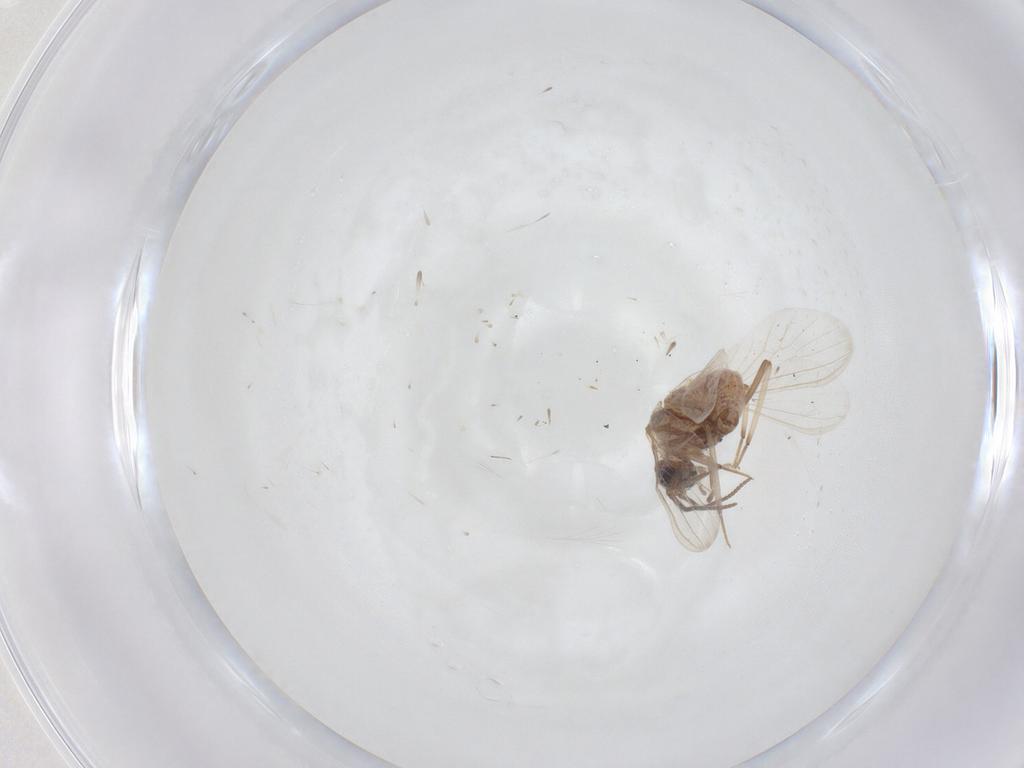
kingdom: Animalia
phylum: Arthropoda
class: Insecta
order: Neuroptera
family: Coniopterygidae
